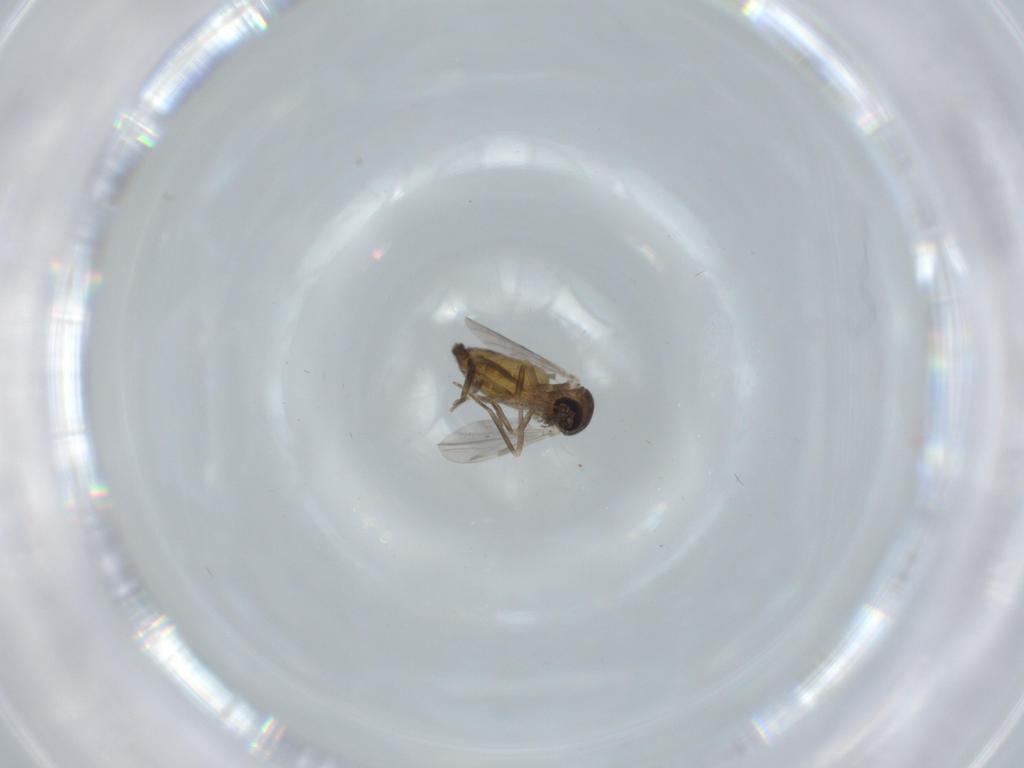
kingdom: Animalia
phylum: Arthropoda
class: Insecta
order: Diptera
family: Ceratopogonidae
